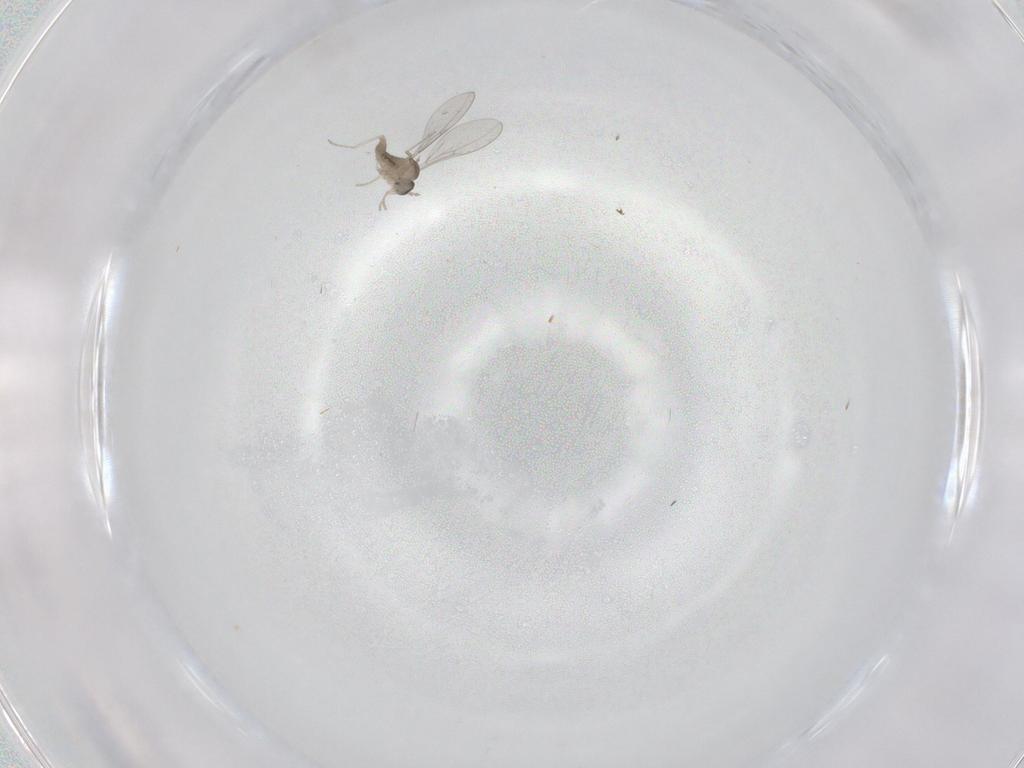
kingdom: Animalia
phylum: Arthropoda
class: Insecta
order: Diptera
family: Cecidomyiidae
